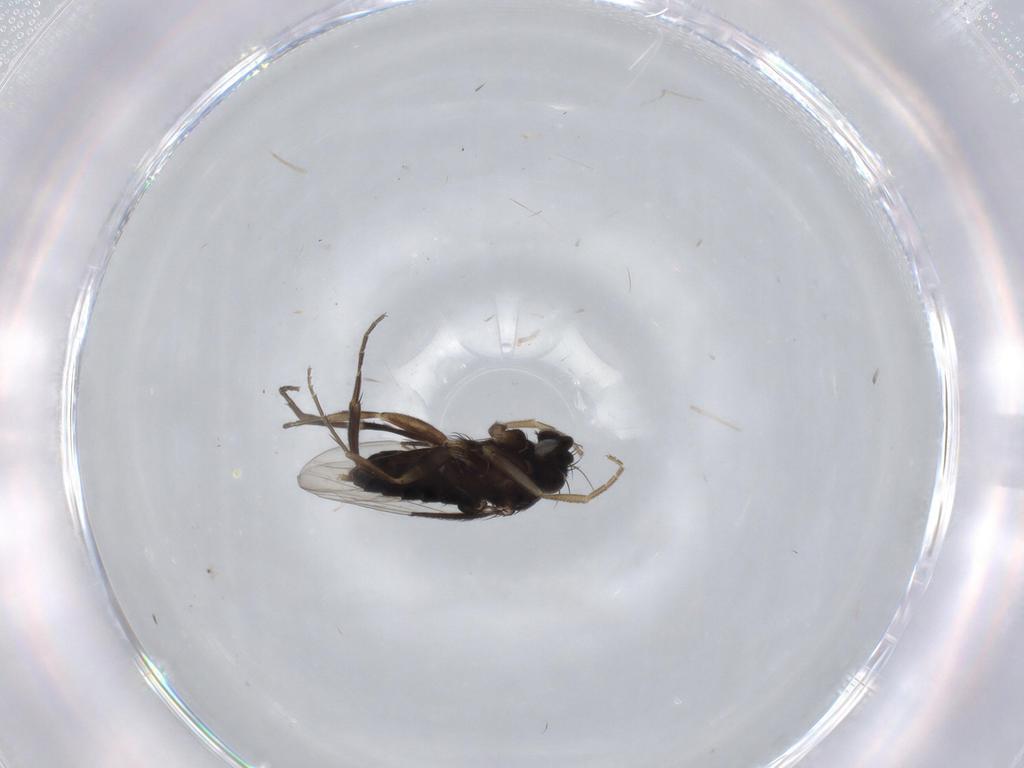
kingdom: Animalia
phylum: Arthropoda
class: Insecta
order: Diptera
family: Phoridae
